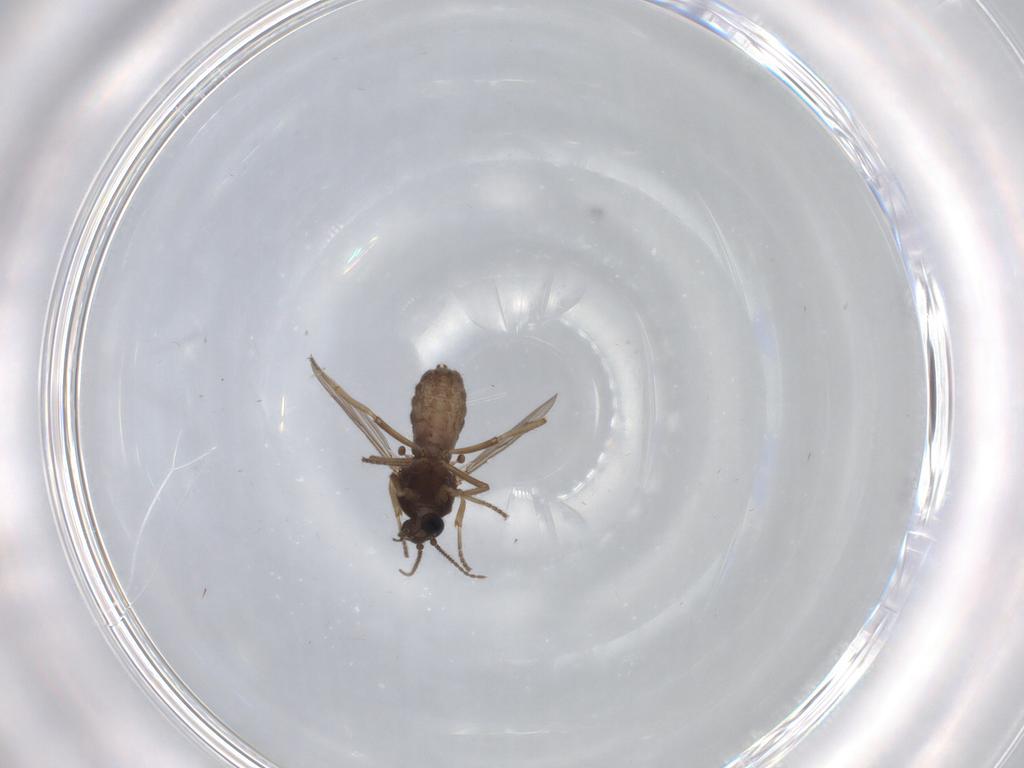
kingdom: Animalia
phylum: Arthropoda
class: Insecta
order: Diptera
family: Ceratopogonidae
